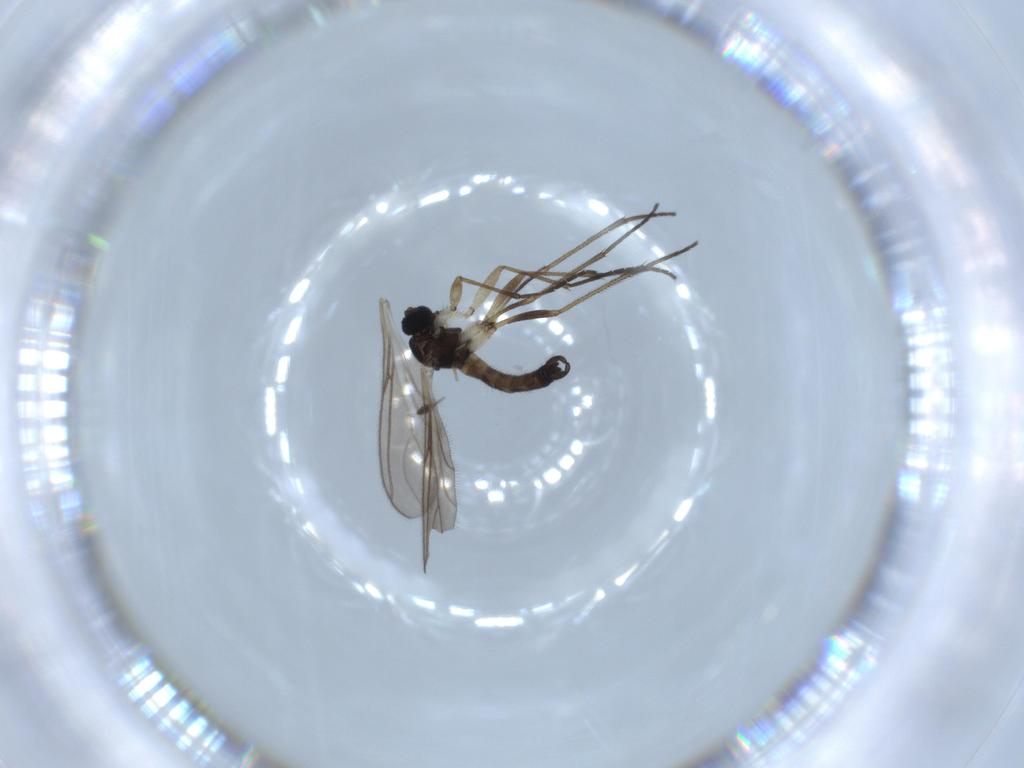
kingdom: Animalia
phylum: Arthropoda
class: Insecta
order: Diptera
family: Sciaridae
